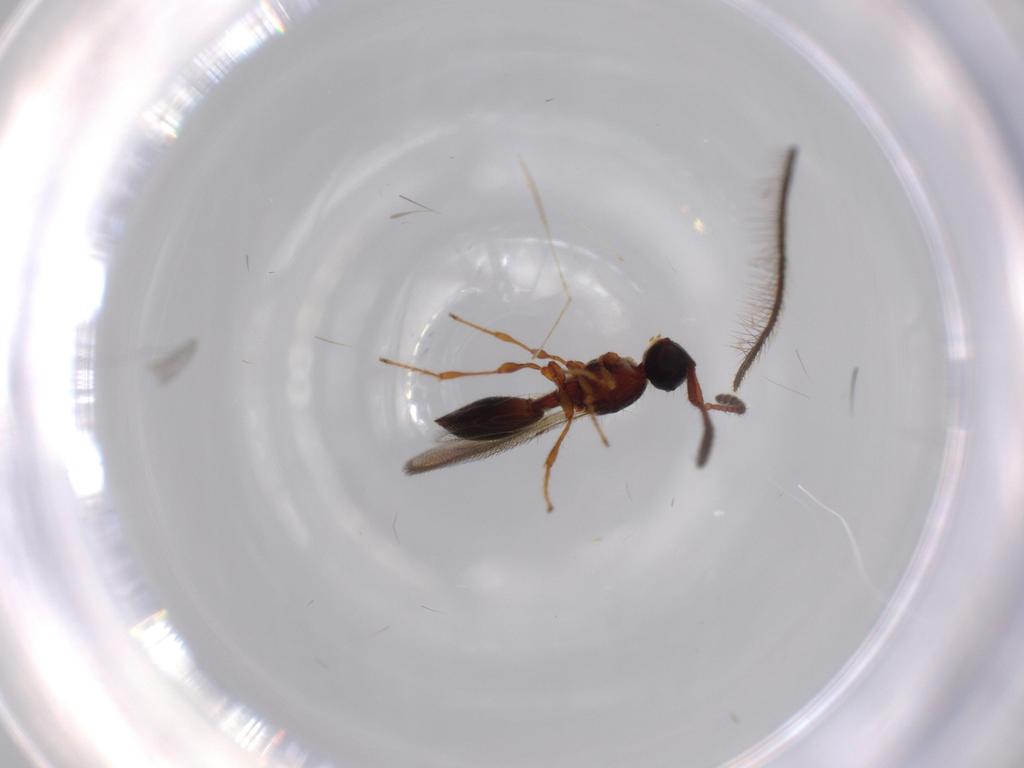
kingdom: Animalia
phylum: Arthropoda
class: Insecta
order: Hymenoptera
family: Diapriidae
